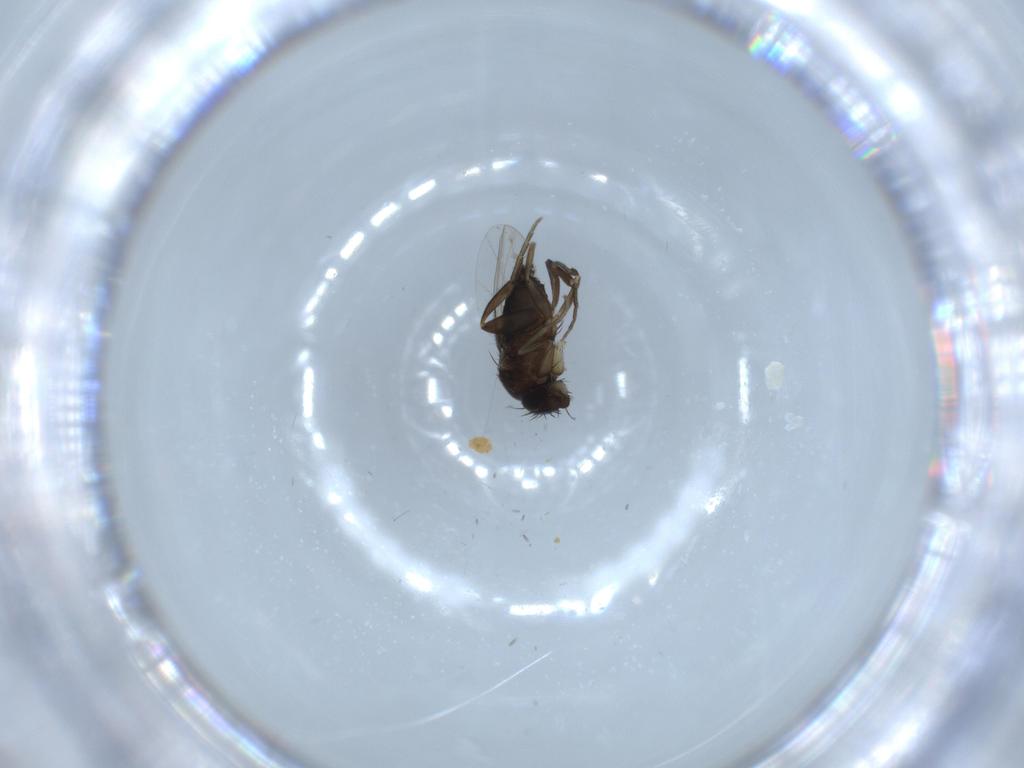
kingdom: Animalia
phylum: Arthropoda
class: Insecta
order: Diptera
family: Phoridae
